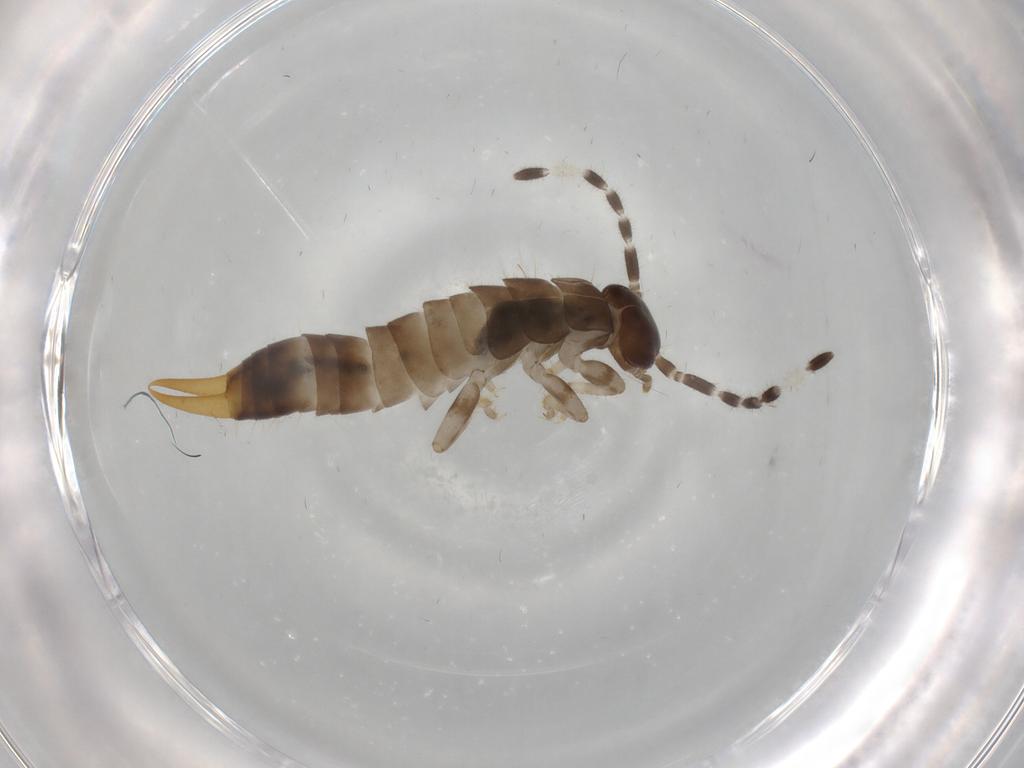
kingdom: Animalia
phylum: Arthropoda
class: Insecta
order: Dermaptera
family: Anisolabididae
